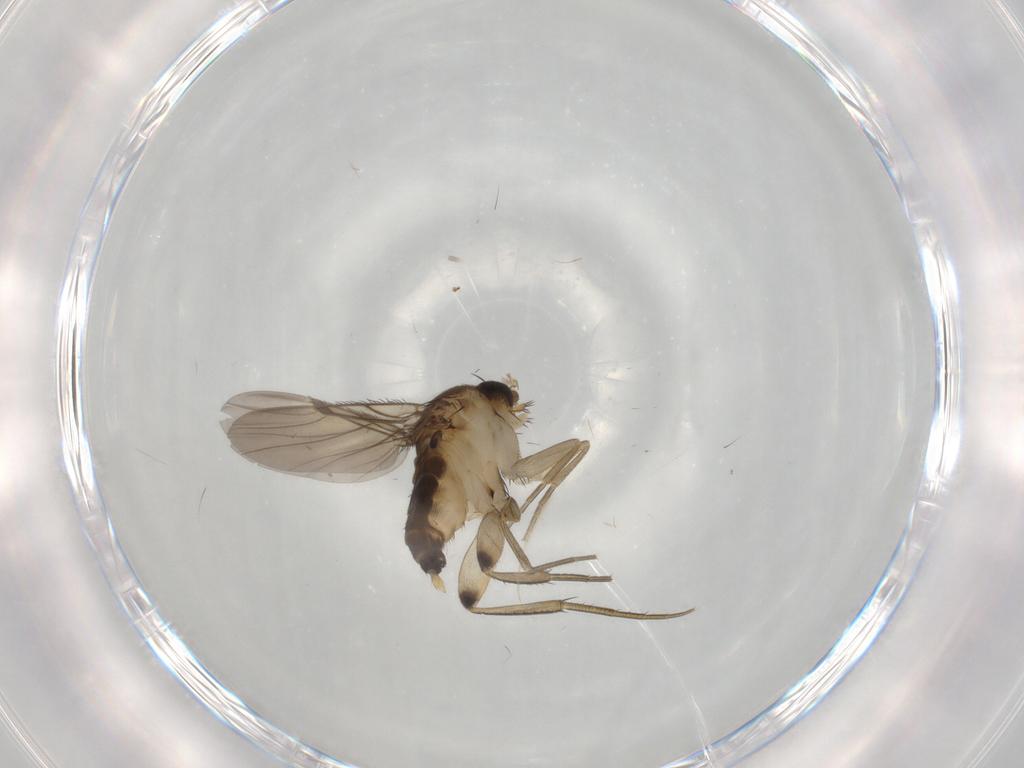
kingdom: Animalia
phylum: Arthropoda
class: Insecta
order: Diptera
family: Cecidomyiidae
